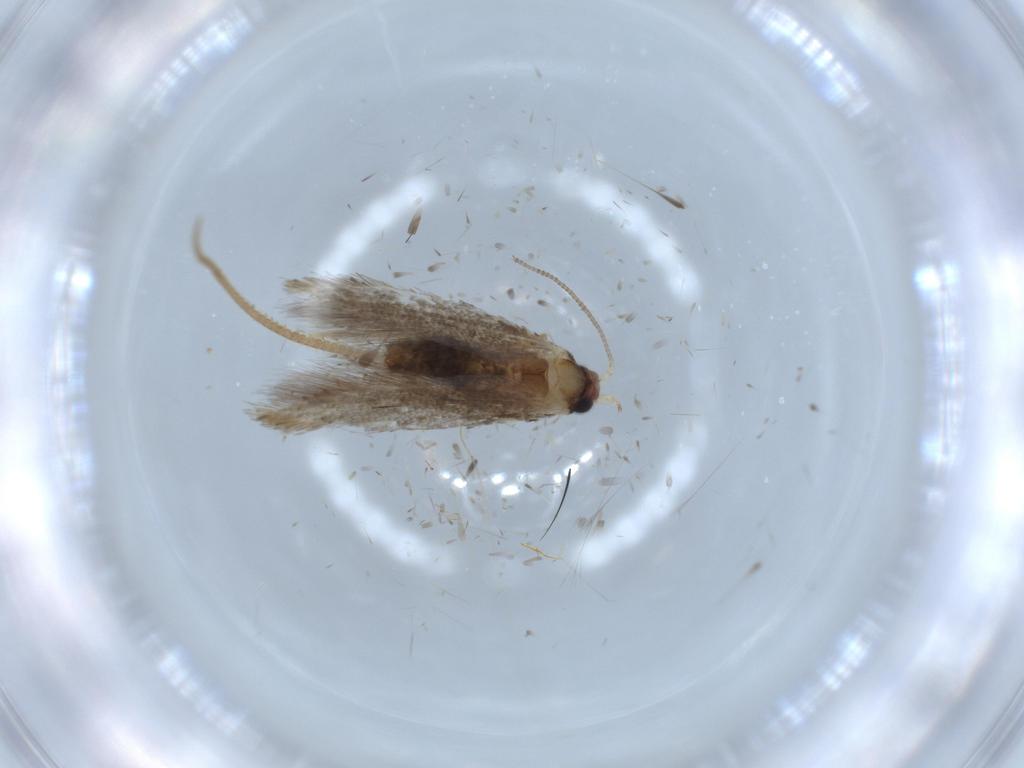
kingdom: Animalia
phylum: Arthropoda
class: Insecta
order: Lepidoptera
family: Tineidae
